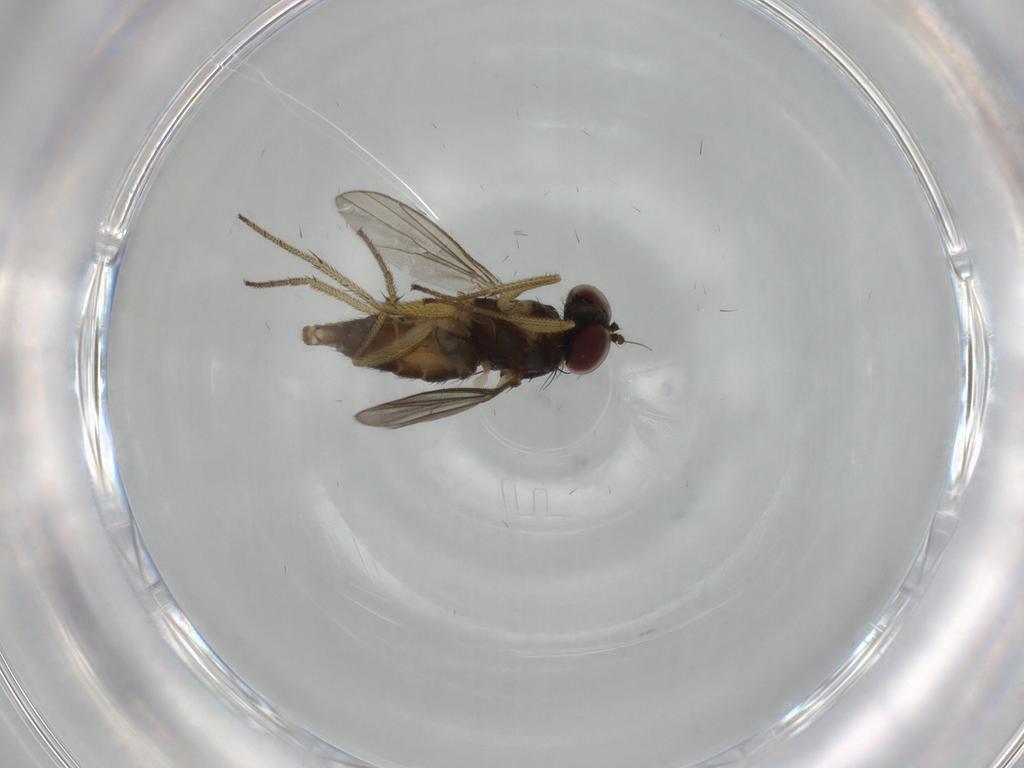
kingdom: Animalia
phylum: Arthropoda
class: Insecta
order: Diptera
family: Dolichopodidae
